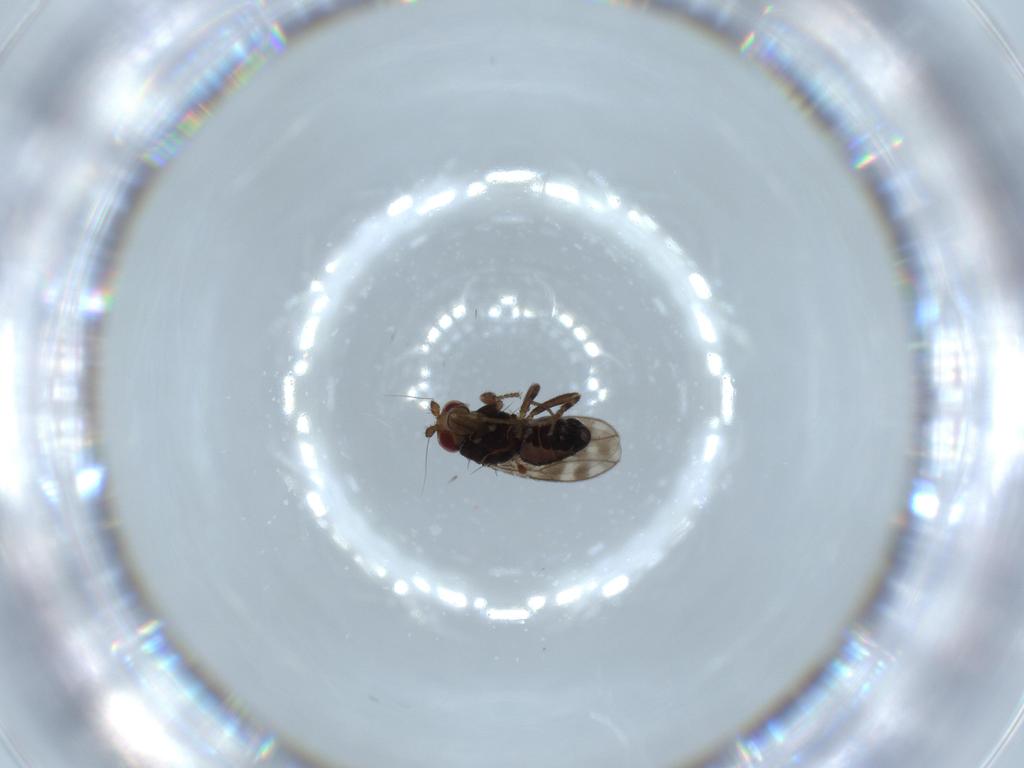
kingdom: Animalia
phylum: Arthropoda
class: Insecta
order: Diptera
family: Sphaeroceridae
